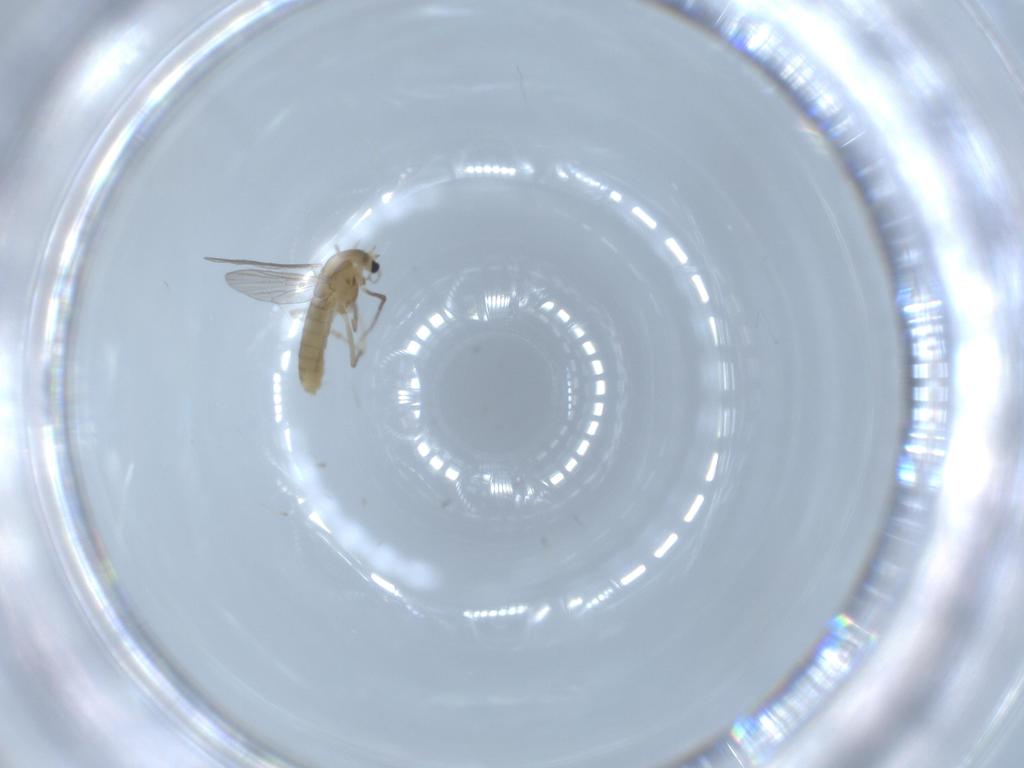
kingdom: Animalia
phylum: Arthropoda
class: Insecta
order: Diptera
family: Chironomidae
